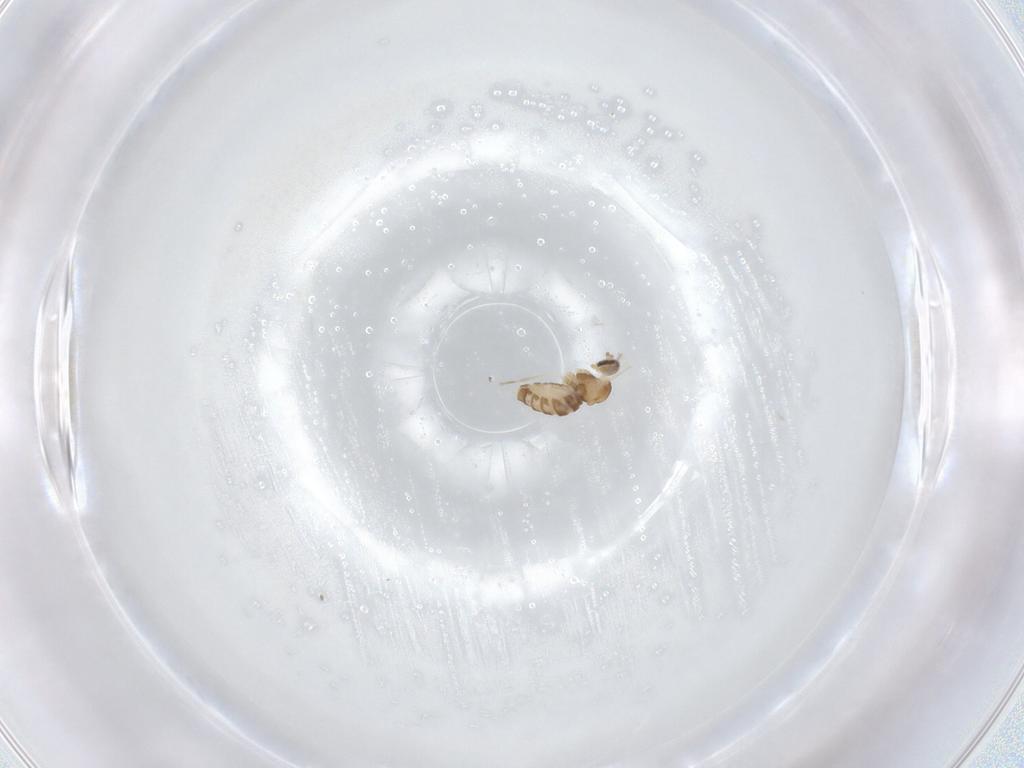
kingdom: Animalia
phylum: Arthropoda
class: Insecta
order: Diptera
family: Cecidomyiidae
